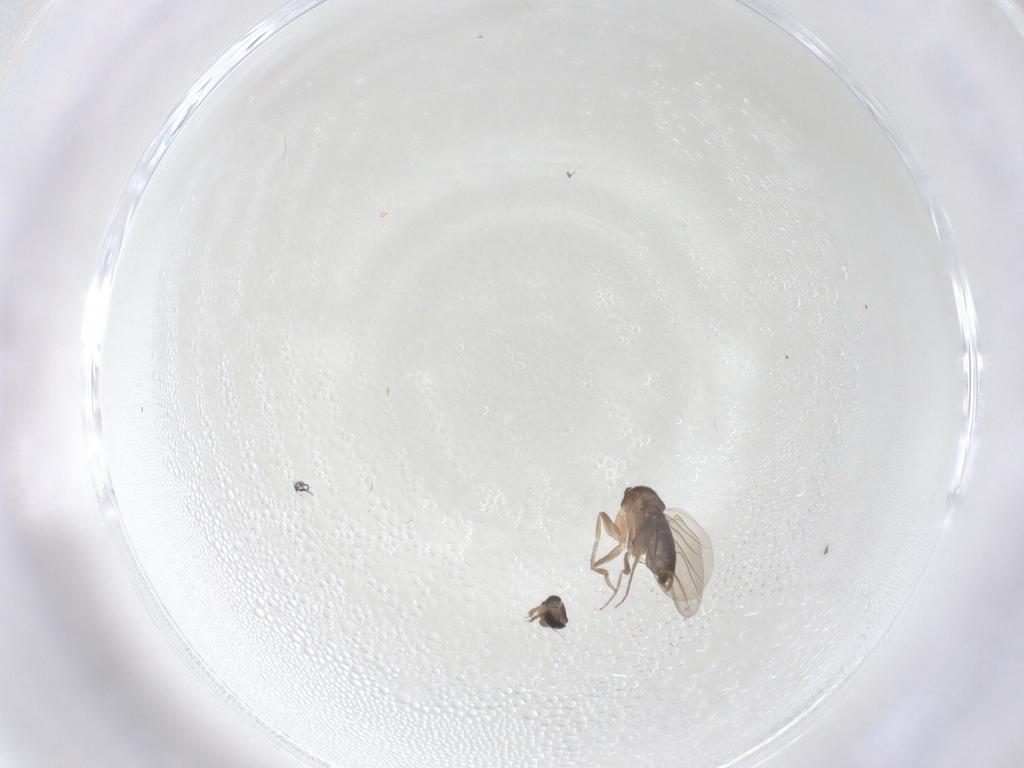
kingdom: Animalia
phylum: Arthropoda
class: Insecta
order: Diptera
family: Phoridae
